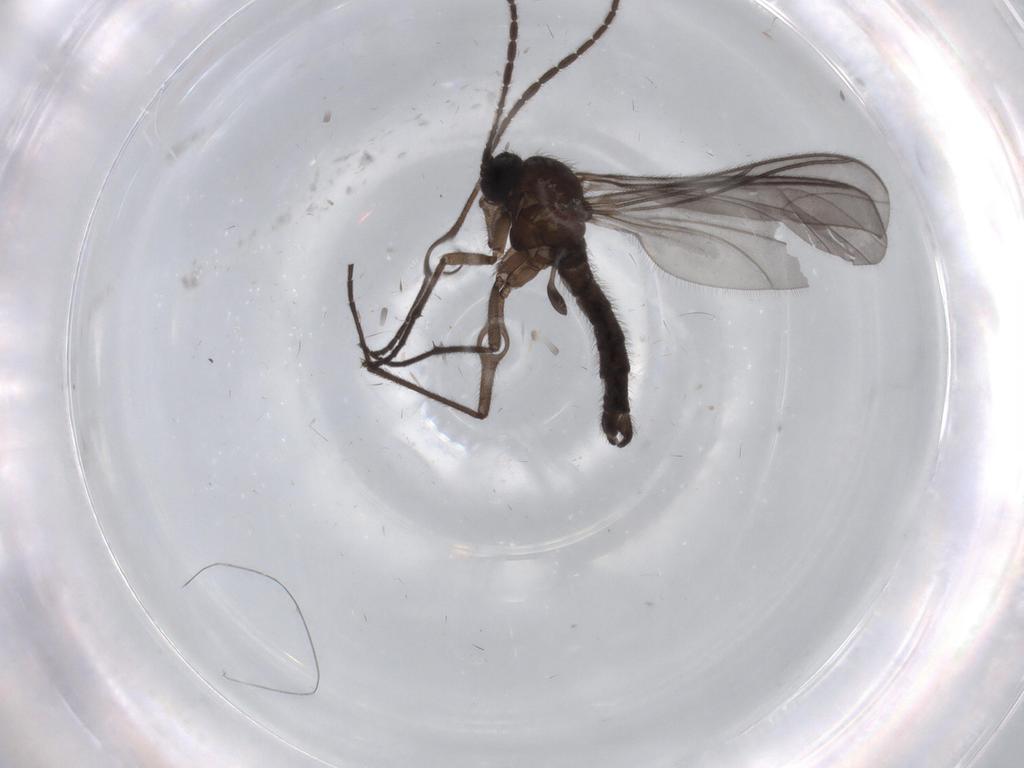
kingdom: Animalia
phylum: Arthropoda
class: Insecta
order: Diptera
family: Sciaridae
